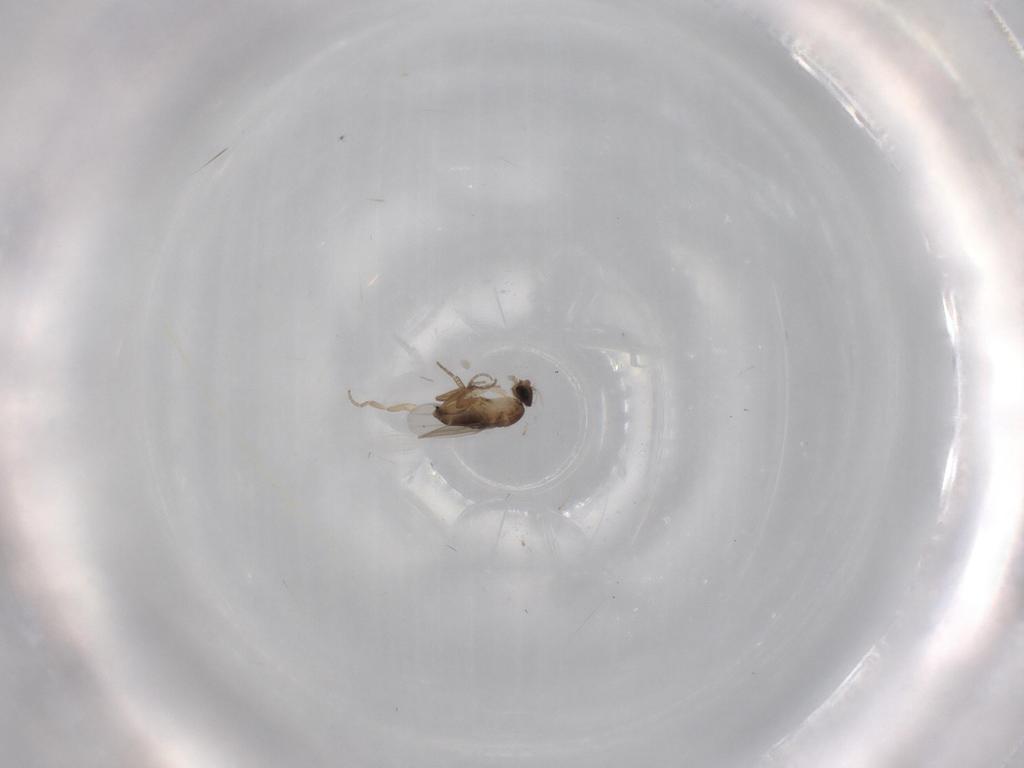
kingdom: Animalia
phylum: Arthropoda
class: Insecta
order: Diptera
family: Cecidomyiidae
